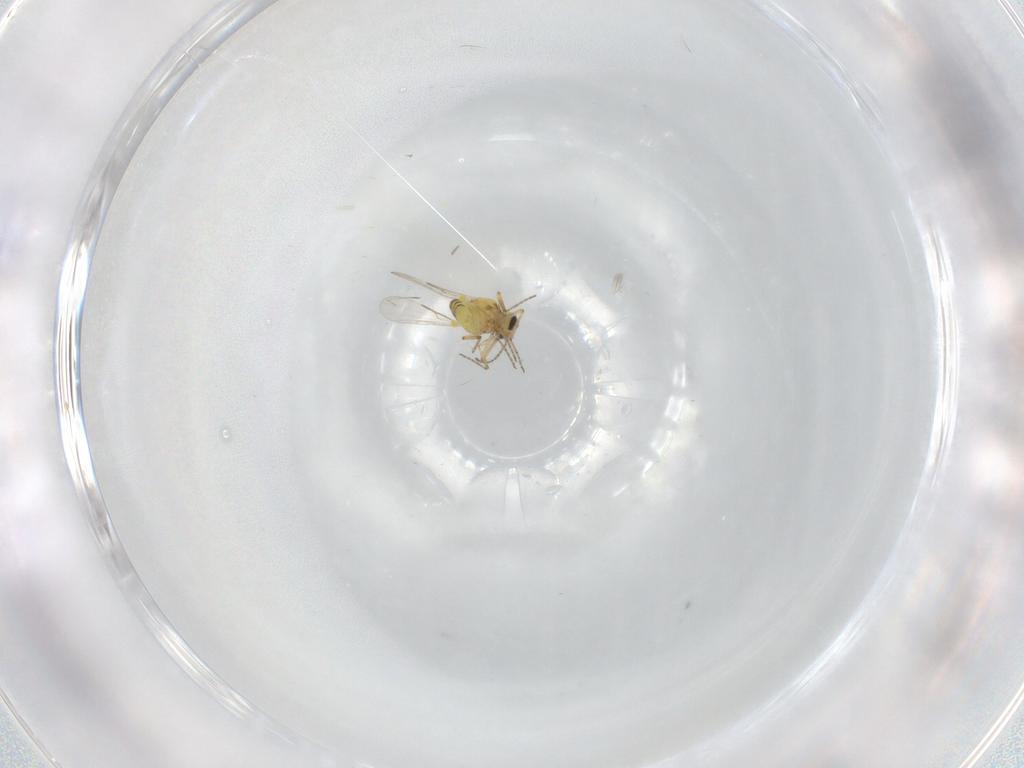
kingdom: Animalia
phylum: Arthropoda
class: Insecta
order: Diptera
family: Ceratopogonidae
